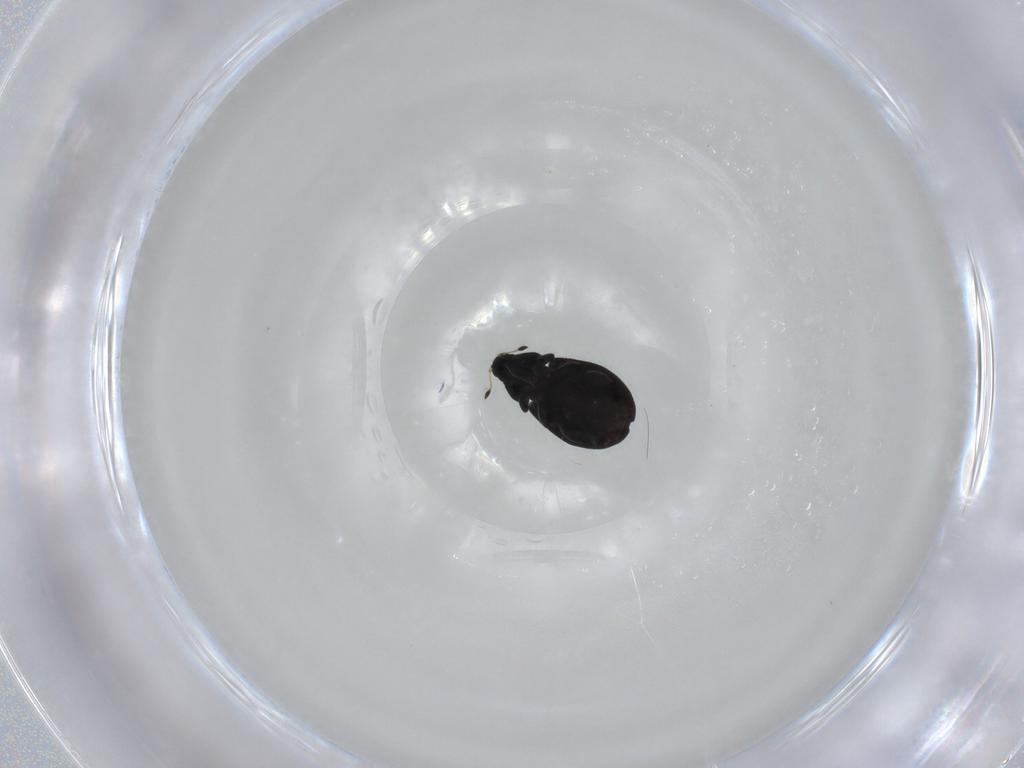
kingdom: Animalia
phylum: Arthropoda
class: Insecta
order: Coleoptera
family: Curculionidae
